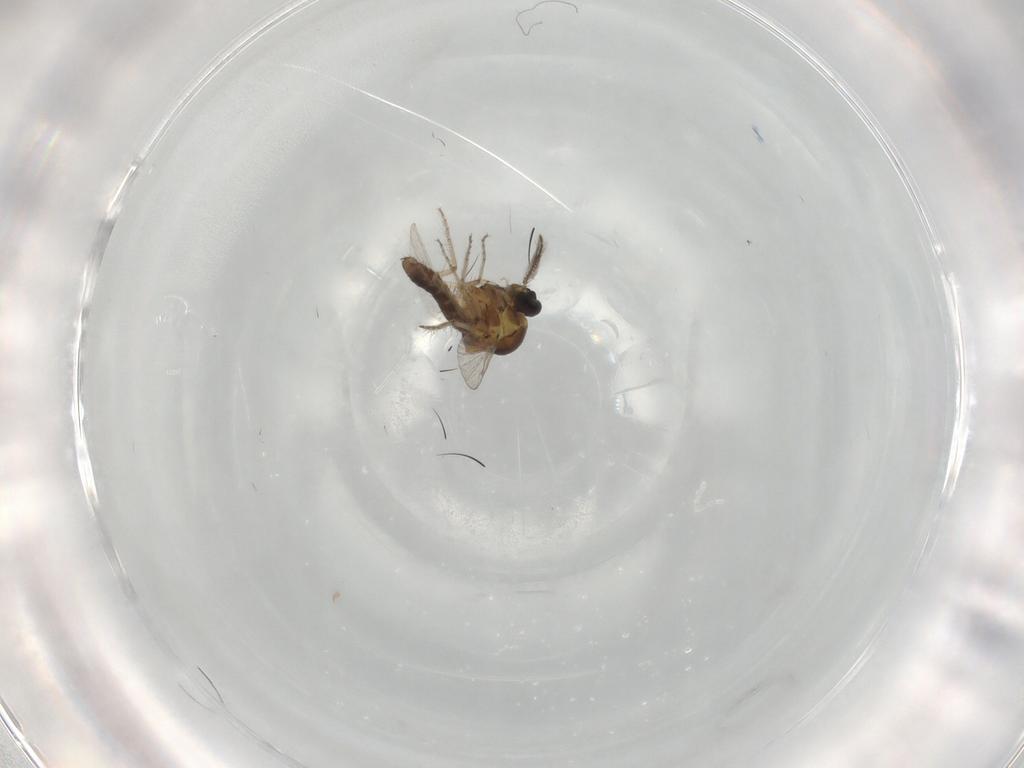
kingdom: Animalia
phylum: Arthropoda
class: Insecta
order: Diptera
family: Ceratopogonidae
